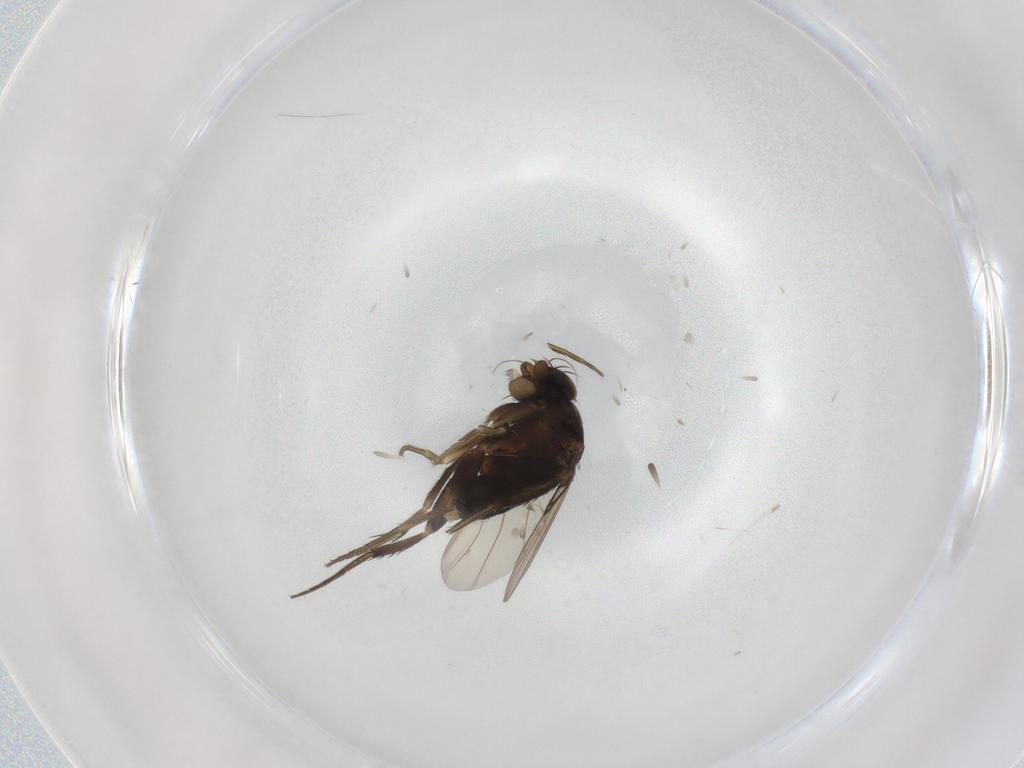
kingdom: Animalia
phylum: Arthropoda
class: Insecta
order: Diptera
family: Phoridae
